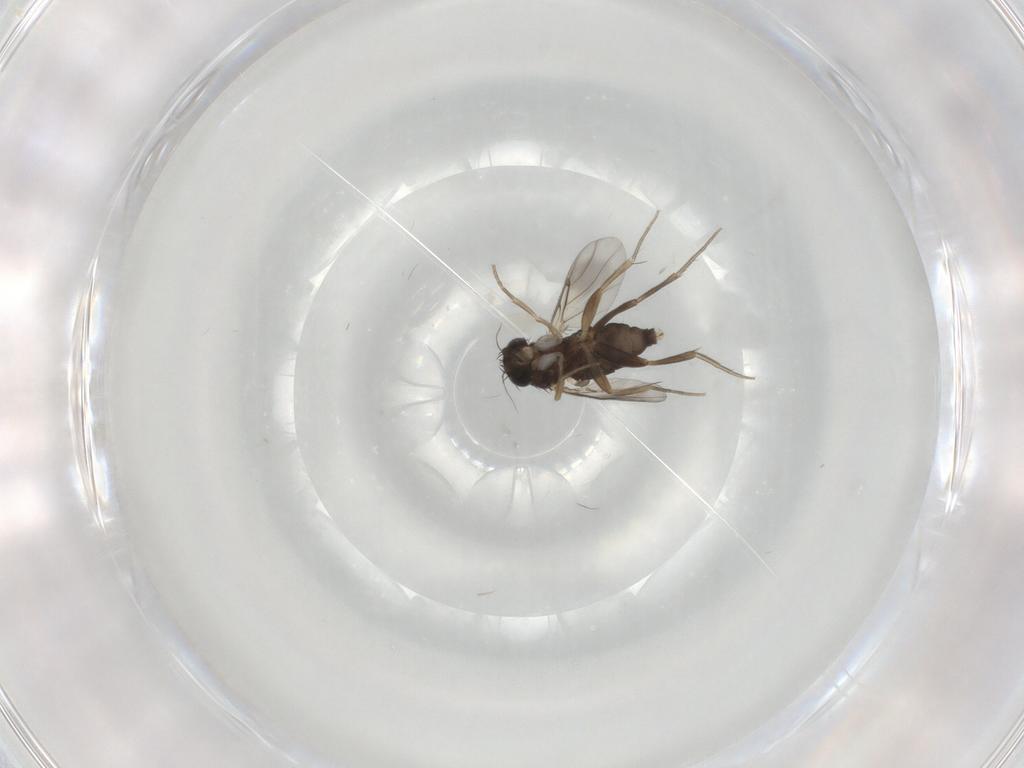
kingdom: Animalia
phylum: Arthropoda
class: Insecta
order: Diptera
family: Phoridae
